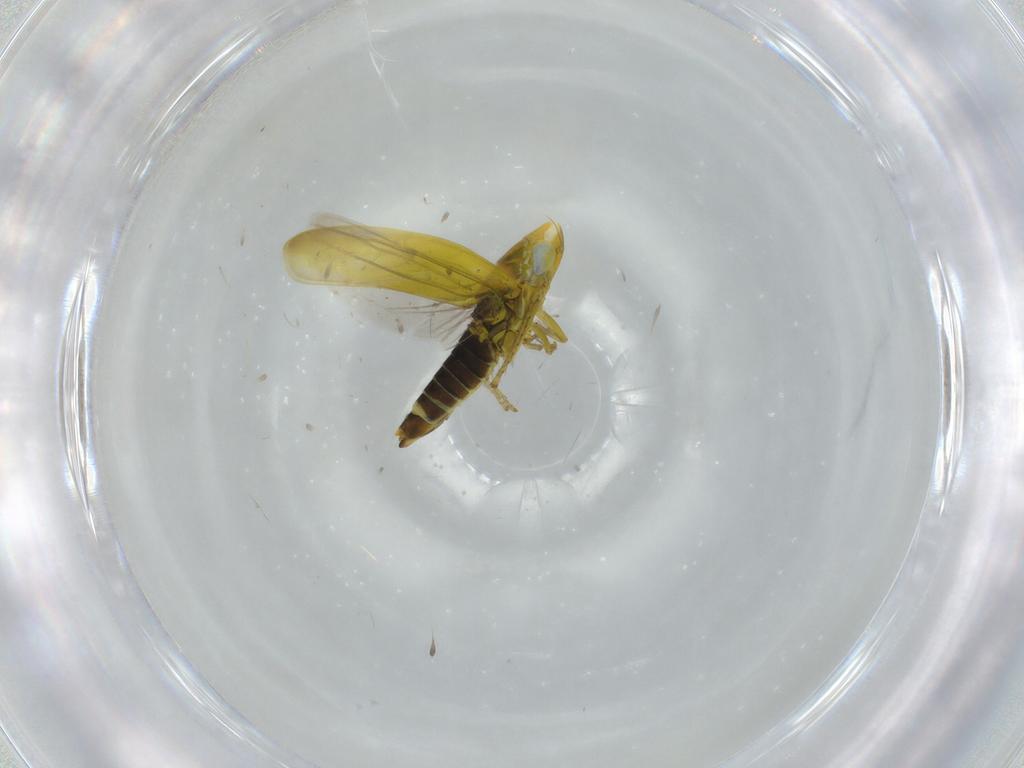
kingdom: Animalia
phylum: Arthropoda
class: Insecta
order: Hemiptera
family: Cicadellidae
